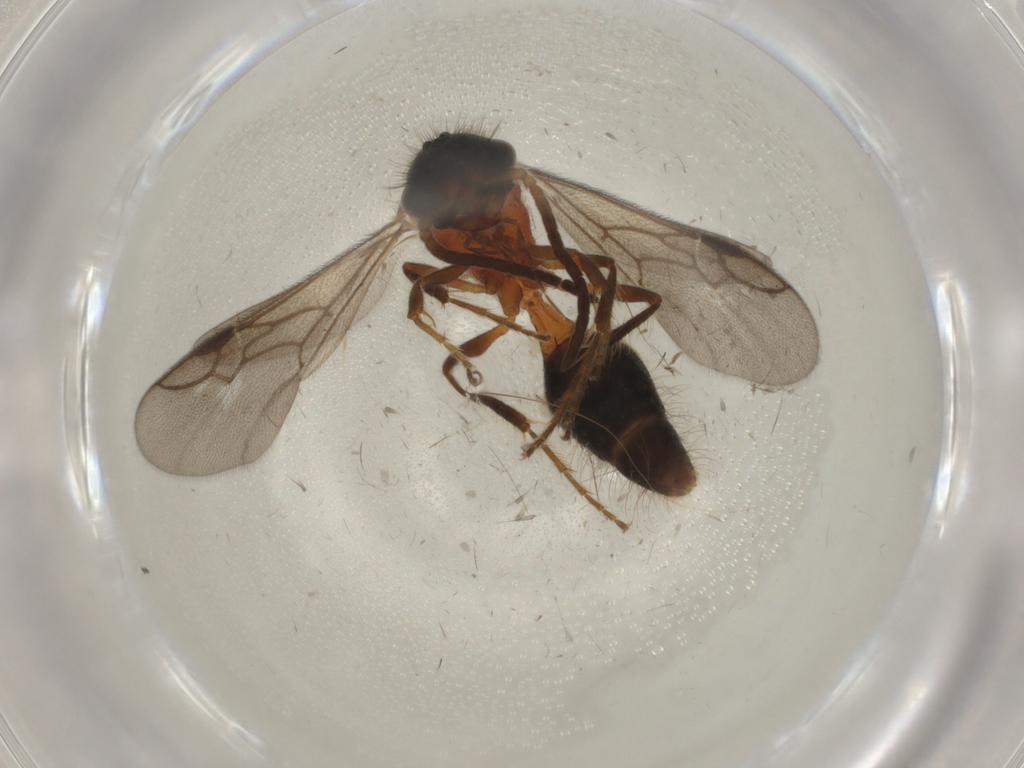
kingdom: Animalia
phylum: Arthropoda
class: Insecta
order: Hymenoptera
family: Mutillidae
